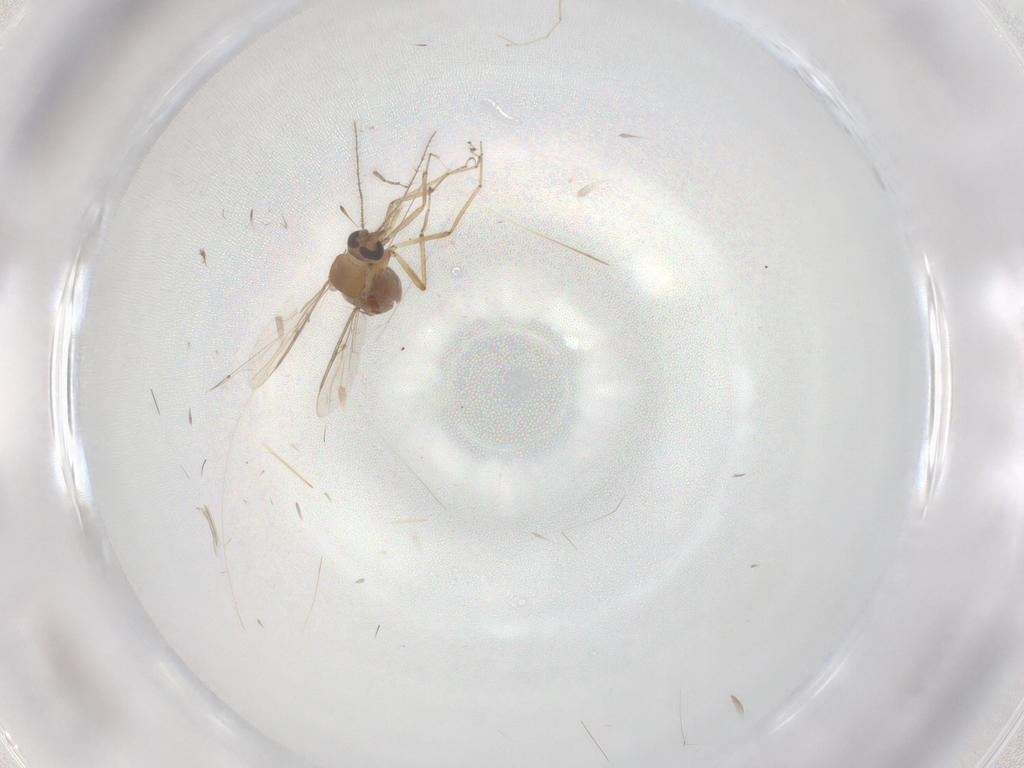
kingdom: Animalia
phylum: Arthropoda
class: Insecta
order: Diptera
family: Ceratopogonidae
